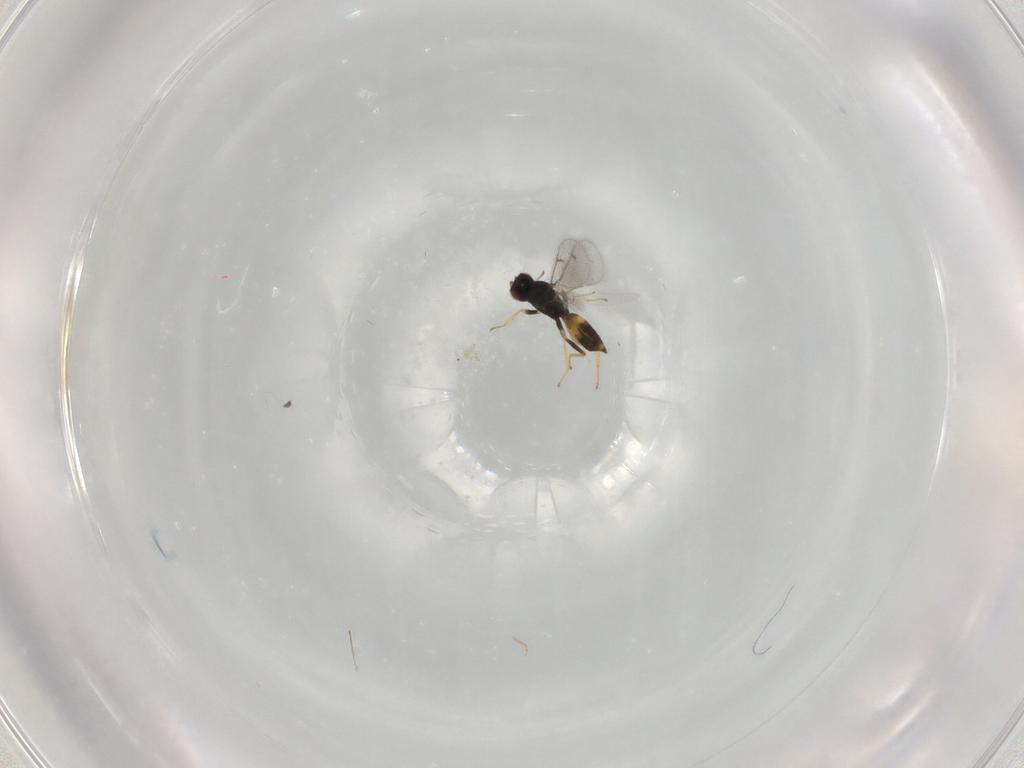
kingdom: Animalia
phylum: Arthropoda
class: Insecta
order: Hymenoptera
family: Eulophidae
